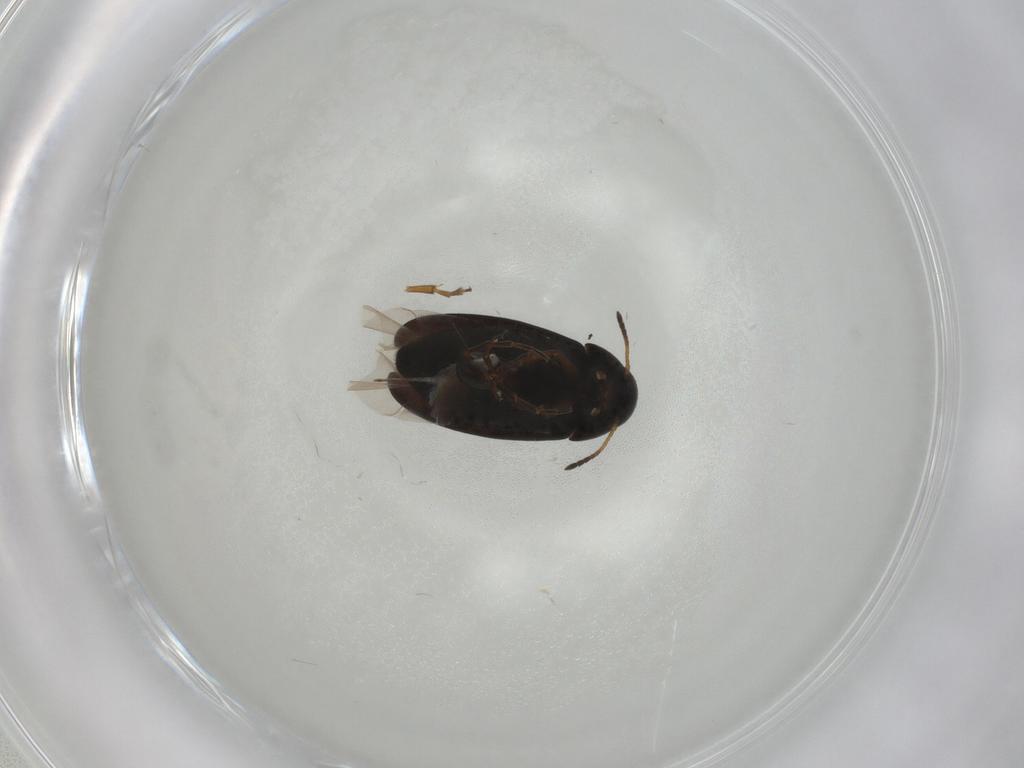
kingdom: Animalia
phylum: Arthropoda
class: Insecta
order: Coleoptera
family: Scraptiidae
